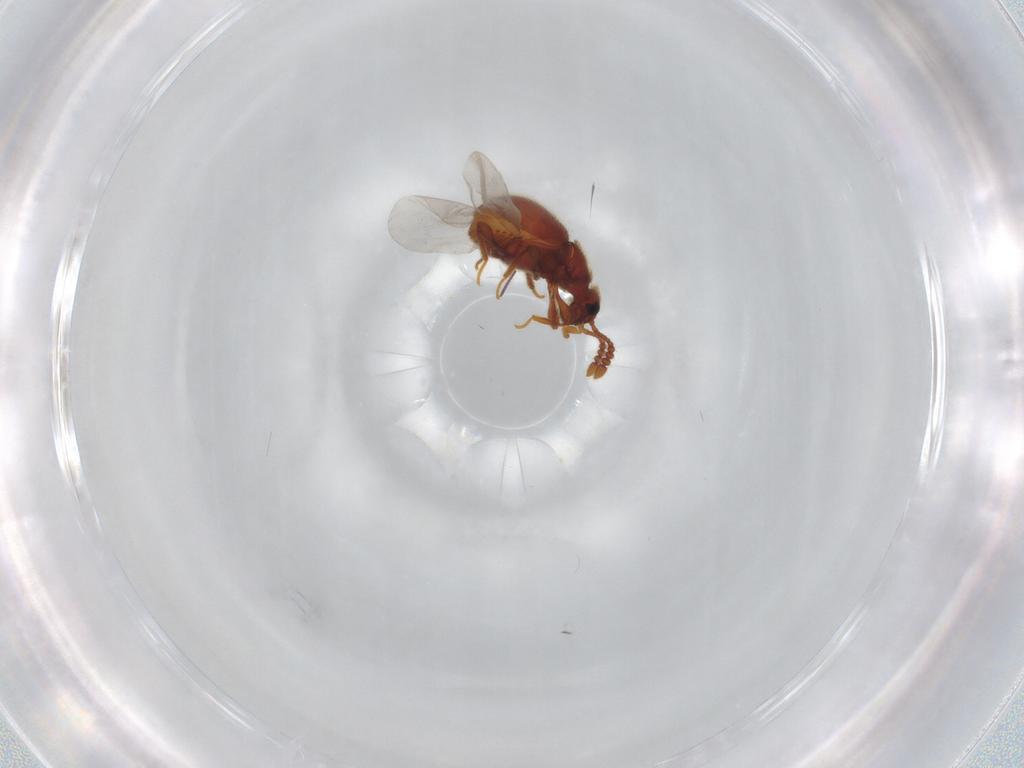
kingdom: Animalia
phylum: Arthropoda
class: Insecta
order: Coleoptera
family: Staphylinidae
